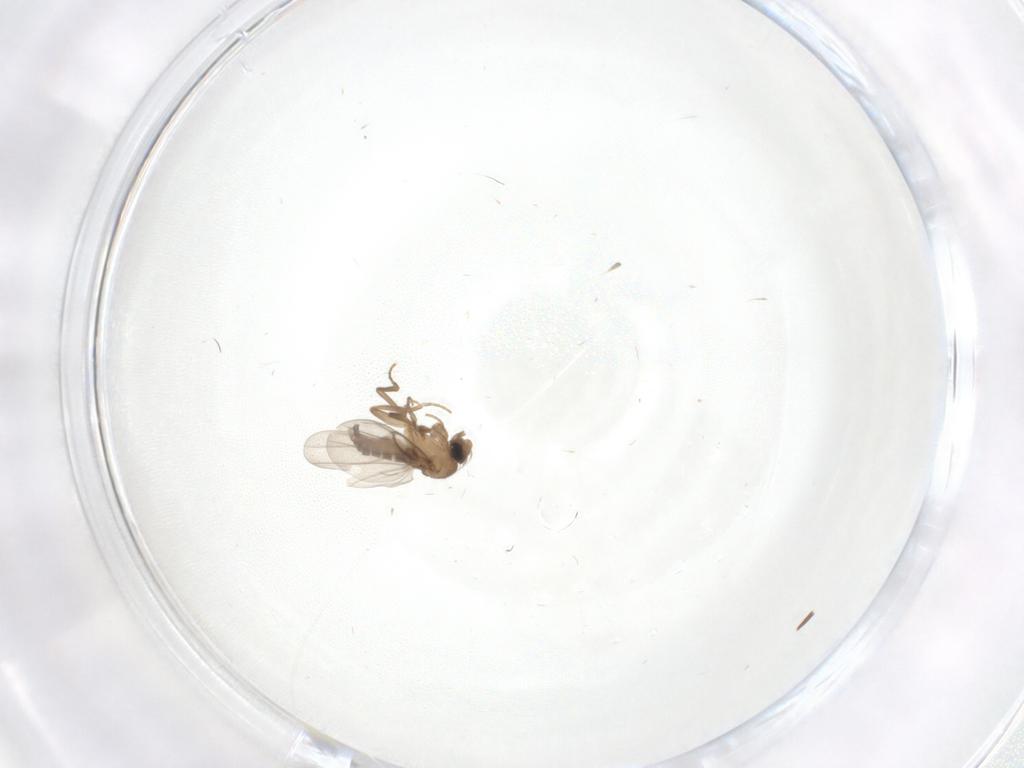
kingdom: Animalia
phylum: Arthropoda
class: Insecta
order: Diptera
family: Cecidomyiidae
